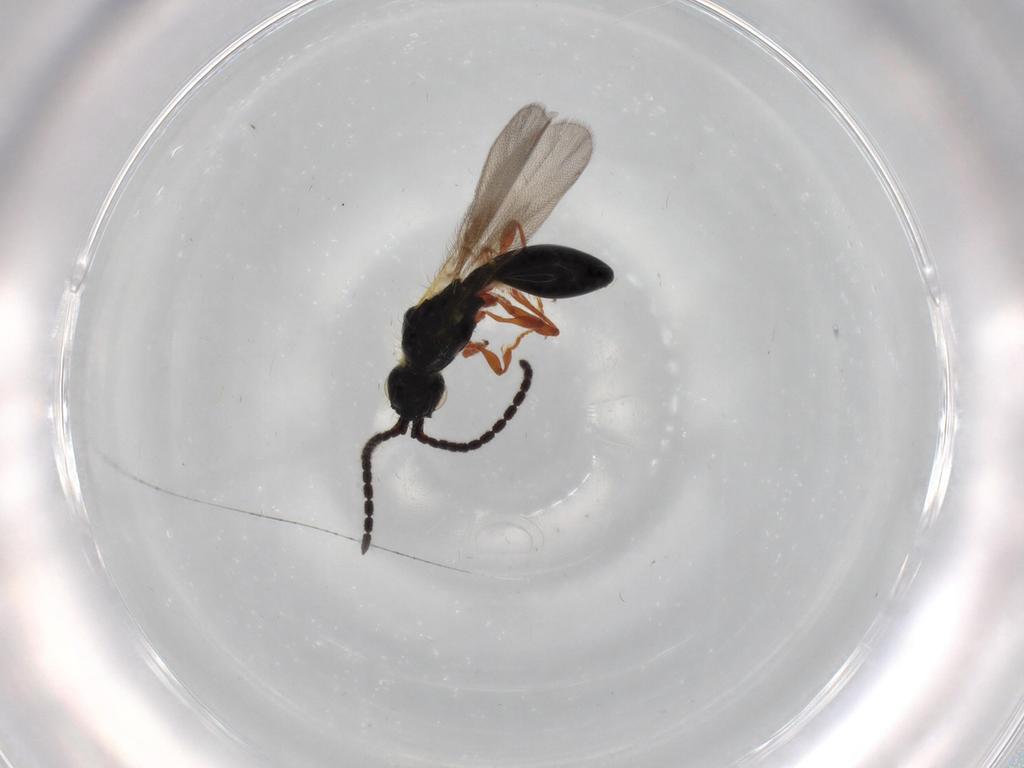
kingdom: Animalia
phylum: Arthropoda
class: Insecta
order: Hymenoptera
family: Diapriidae
